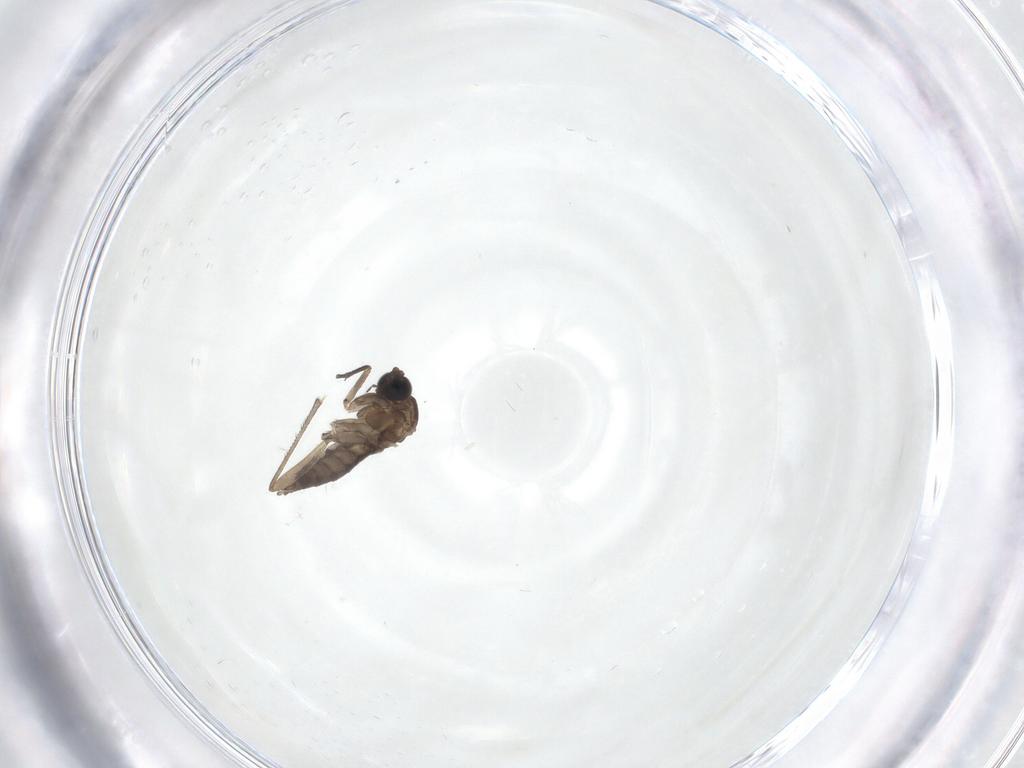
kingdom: Animalia
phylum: Arthropoda
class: Insecta
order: Diptera
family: Sciaridae
